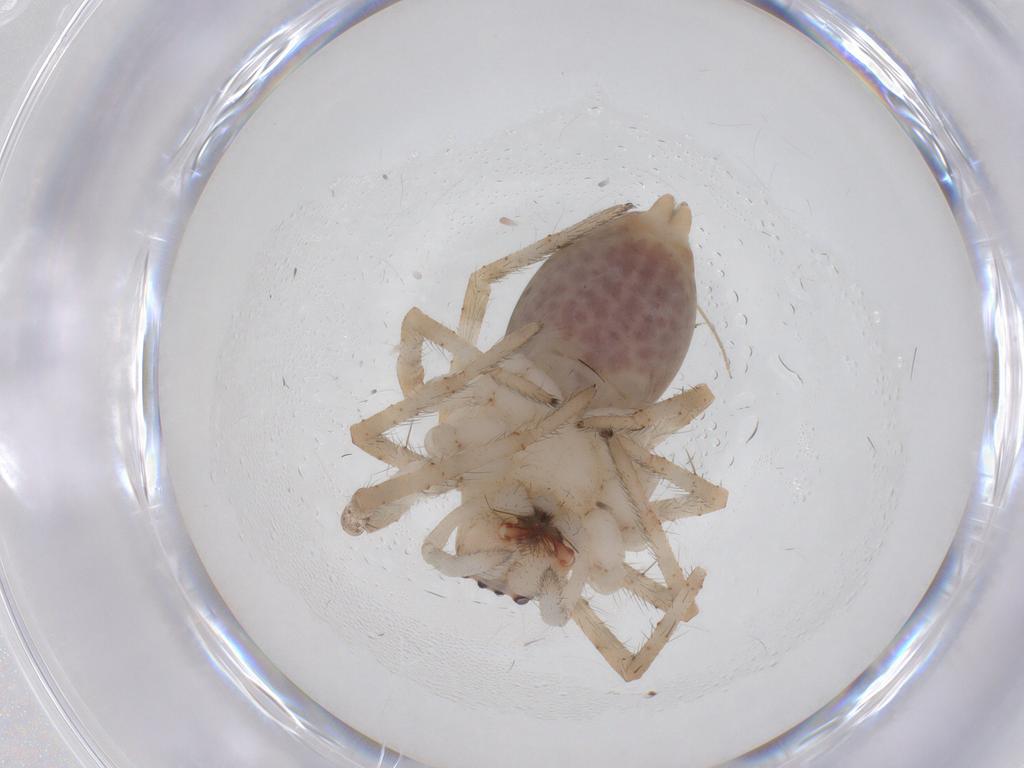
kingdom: Animalia
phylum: Arthropoda
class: Arachnida
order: Araneae
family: Dictynidae
